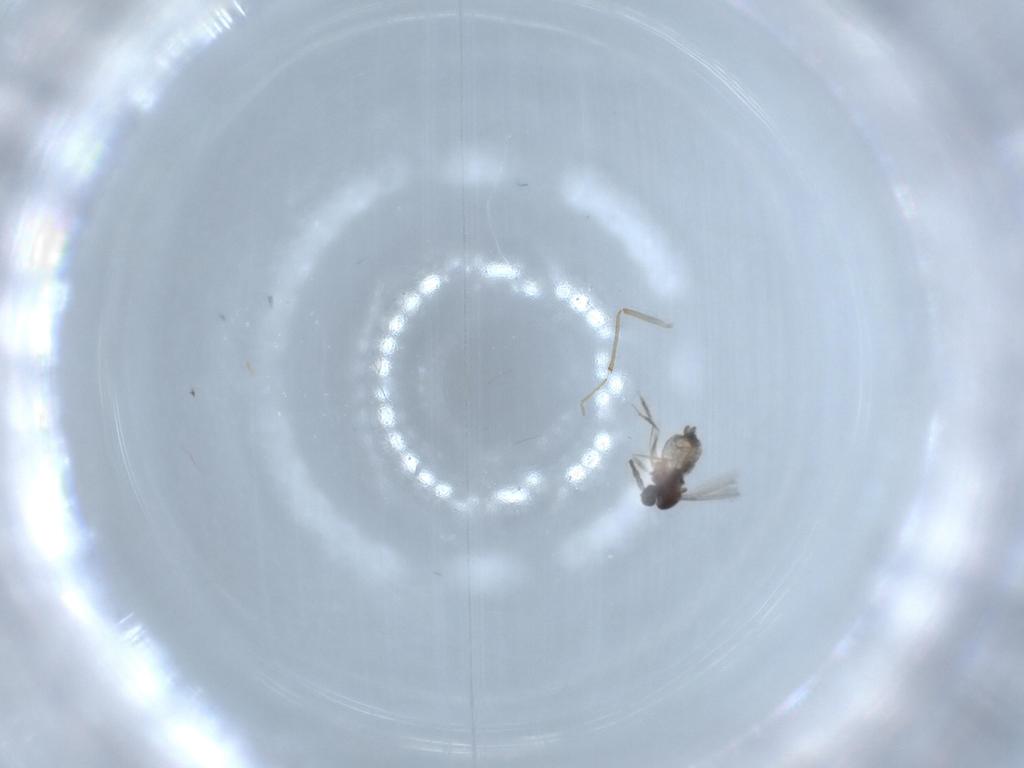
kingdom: Animalia
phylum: Arthropoda
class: Insecta
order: Diptera
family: Cecidomyiidae
